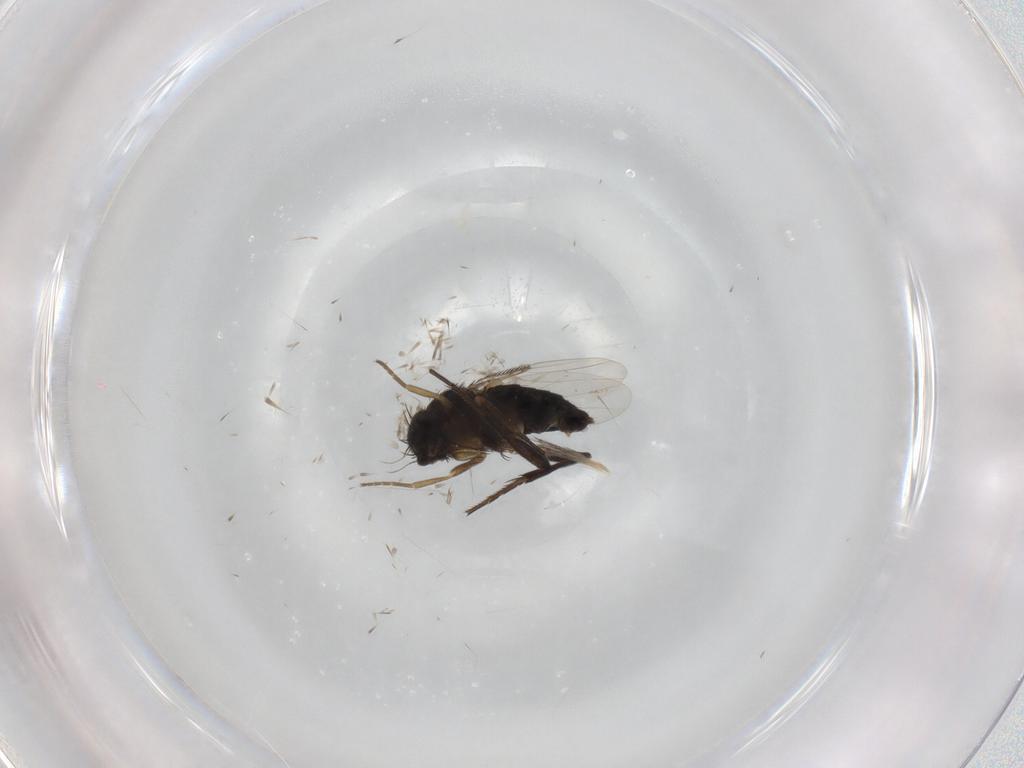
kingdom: Animalia
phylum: Arthropoda
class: Insecta
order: Diptera
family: Phoridae
